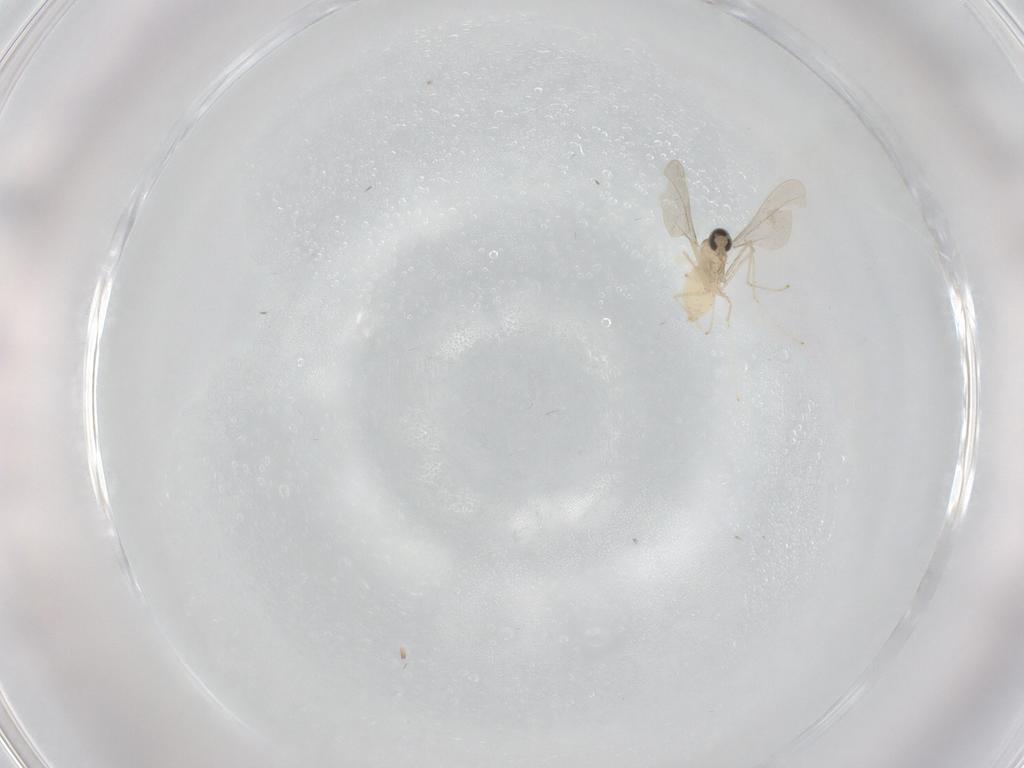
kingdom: Animalia
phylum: Arthropoda
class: Insecta
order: Diptera
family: Cecidomyiidae
